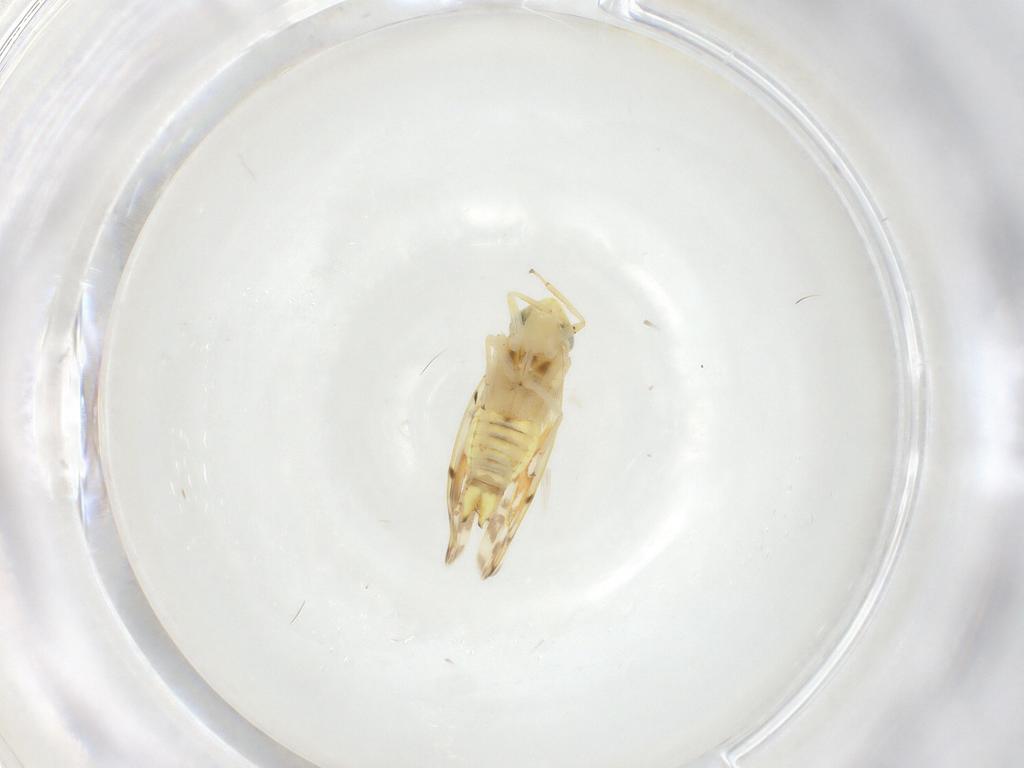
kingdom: Animalia
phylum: Arthropoda
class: Insecta
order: Hemiptera
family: Cicadellidae
